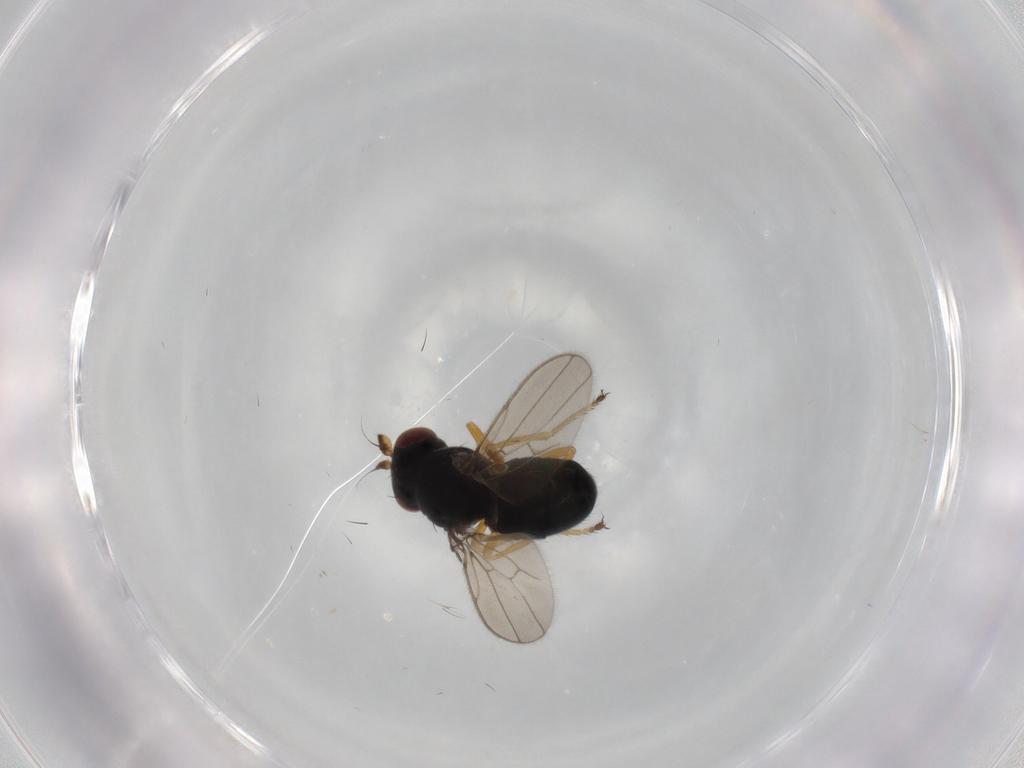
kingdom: Animalia
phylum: Arthropoda
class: Insecta
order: Diptera
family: Ephydridae
